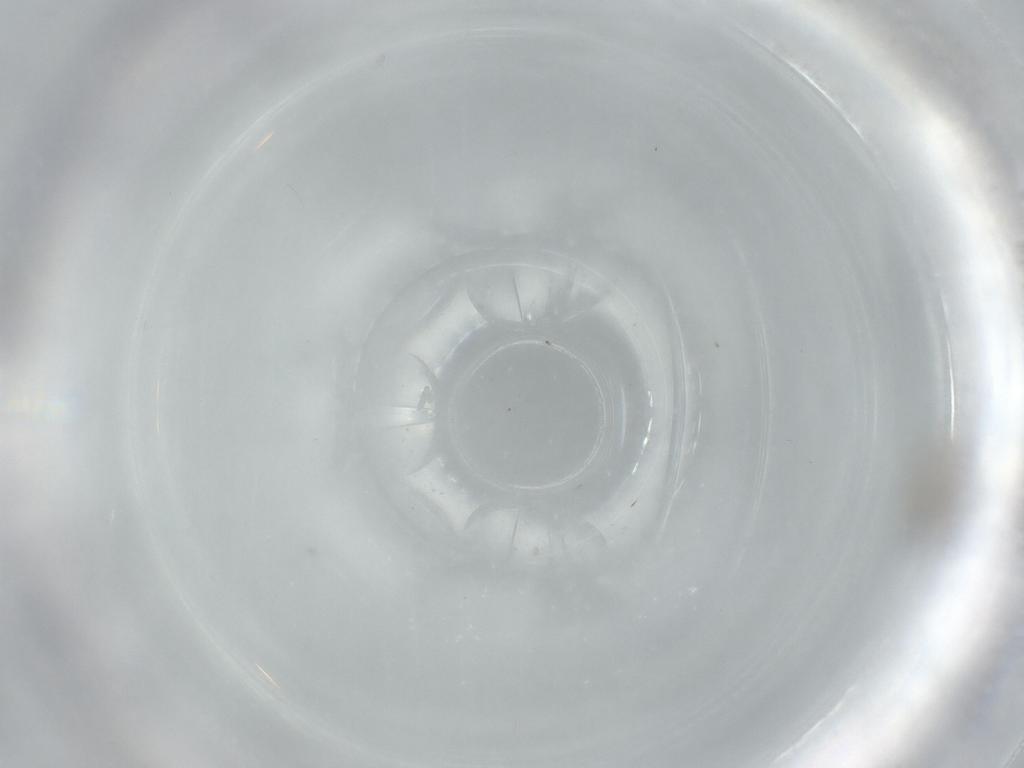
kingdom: Animalia
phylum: Arthropoda
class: Insecta
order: Diptera
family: Chironomidae
